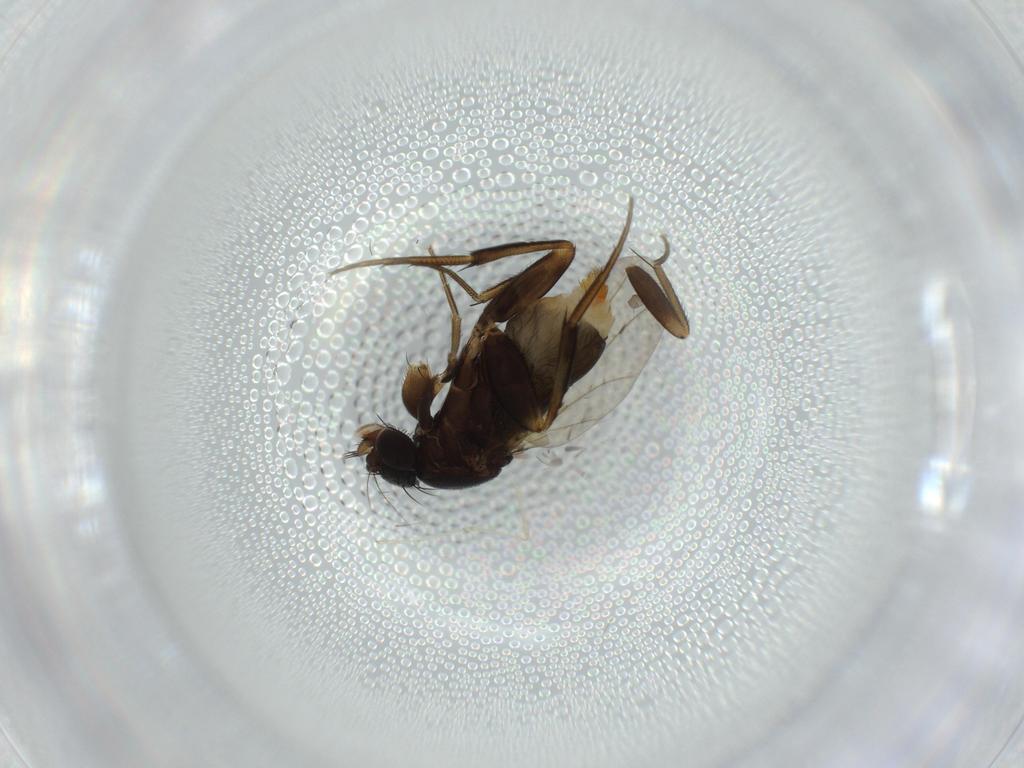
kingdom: Animalia
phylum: Arthropoda
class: Insecta
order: Diptera
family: Phoridae
